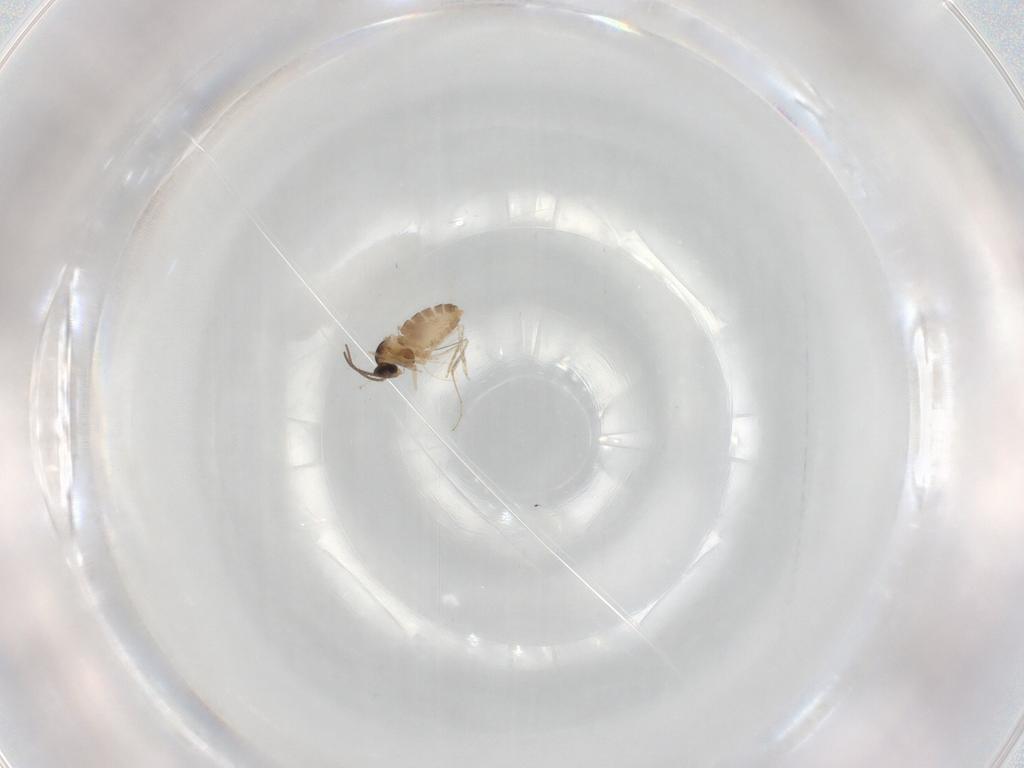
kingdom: Animalia
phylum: Arthropoda
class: Insecta
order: Diptera
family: Cecidomyiidae
